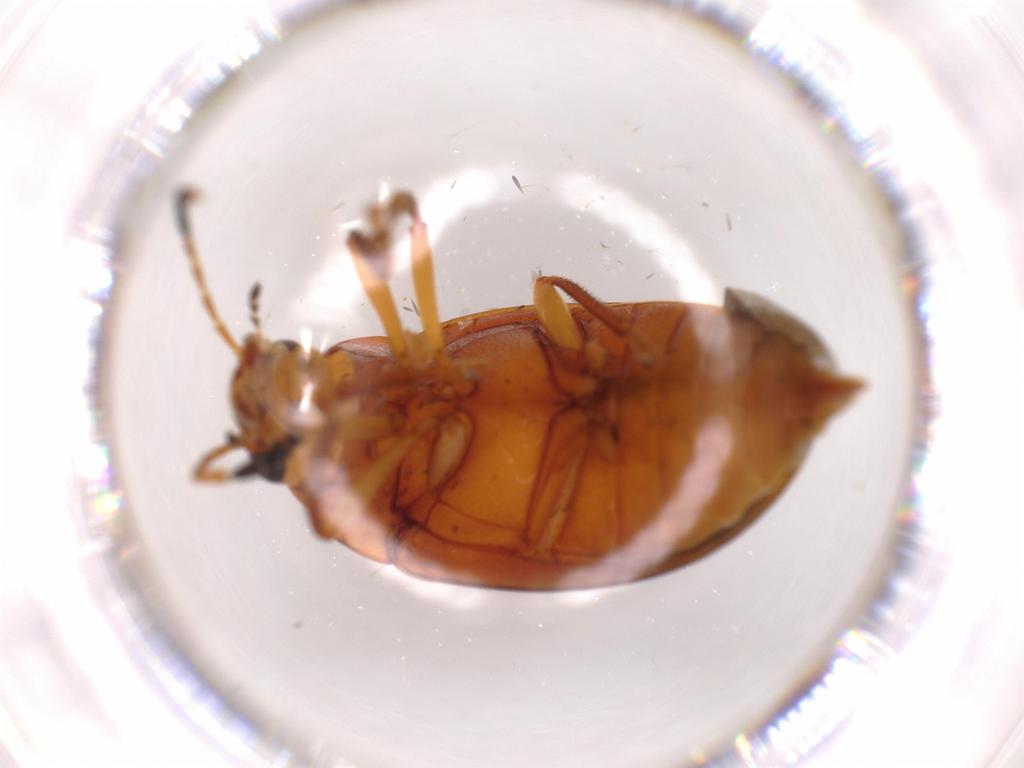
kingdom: Animalia
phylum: Arthropoda
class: Insecta
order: Coleoptera
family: Ptilodactylidae
